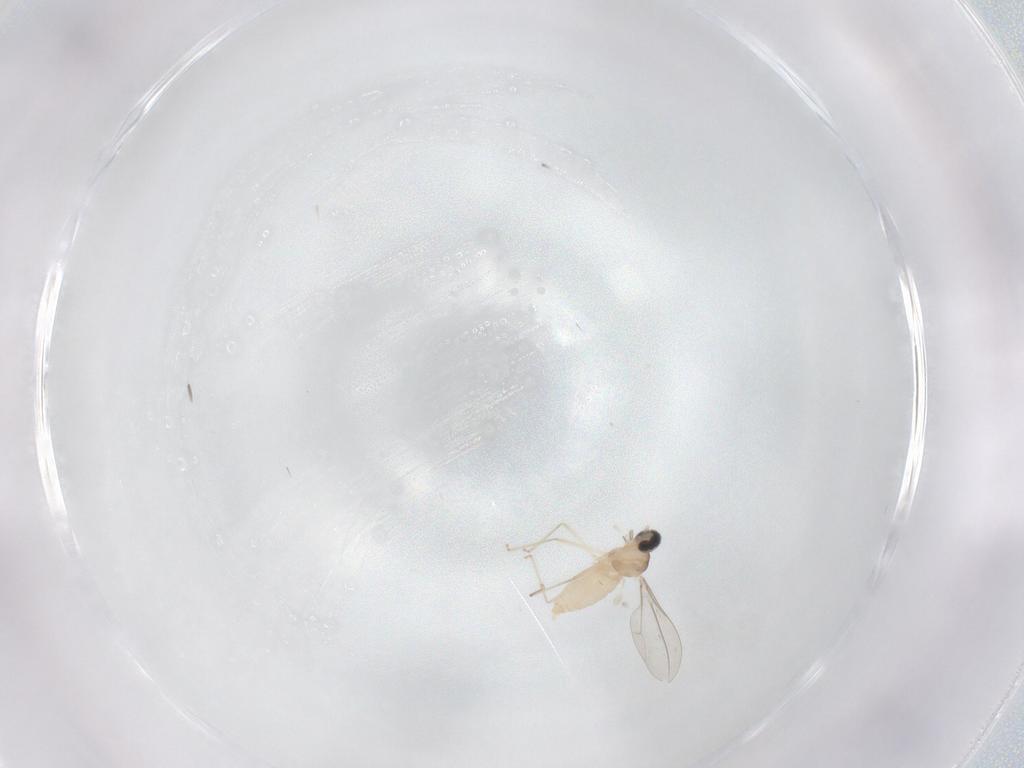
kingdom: Animalia
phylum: Arthropoda
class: Insecta
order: Diptera
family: Cecidomyiidae
